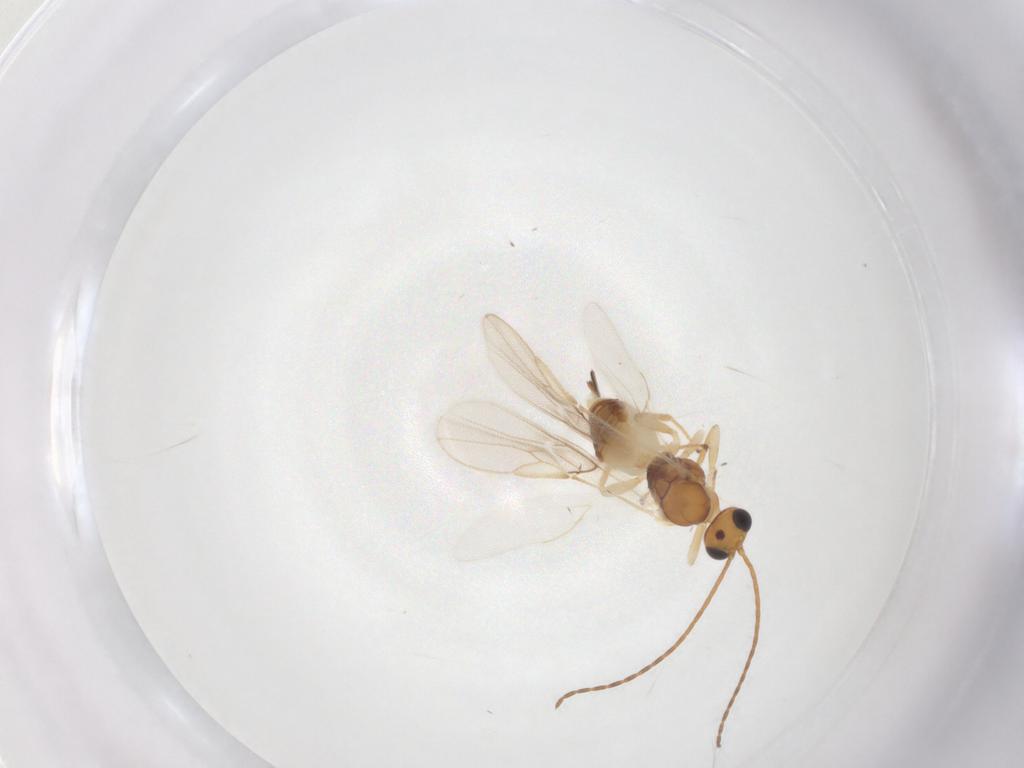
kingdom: Animalia
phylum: Arthropoda
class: Insecta
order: Hymenoptera
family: Braconidae
